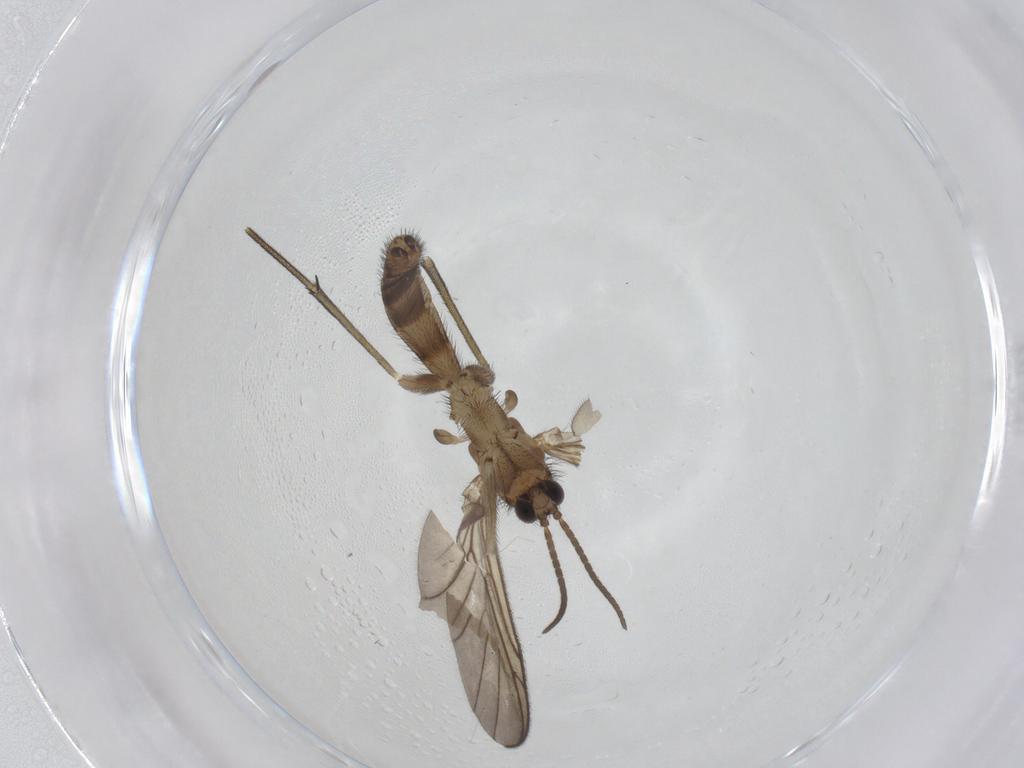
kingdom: Animalia
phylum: Arthropoda
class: Insecta
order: Diptera
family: Keroplatidae
